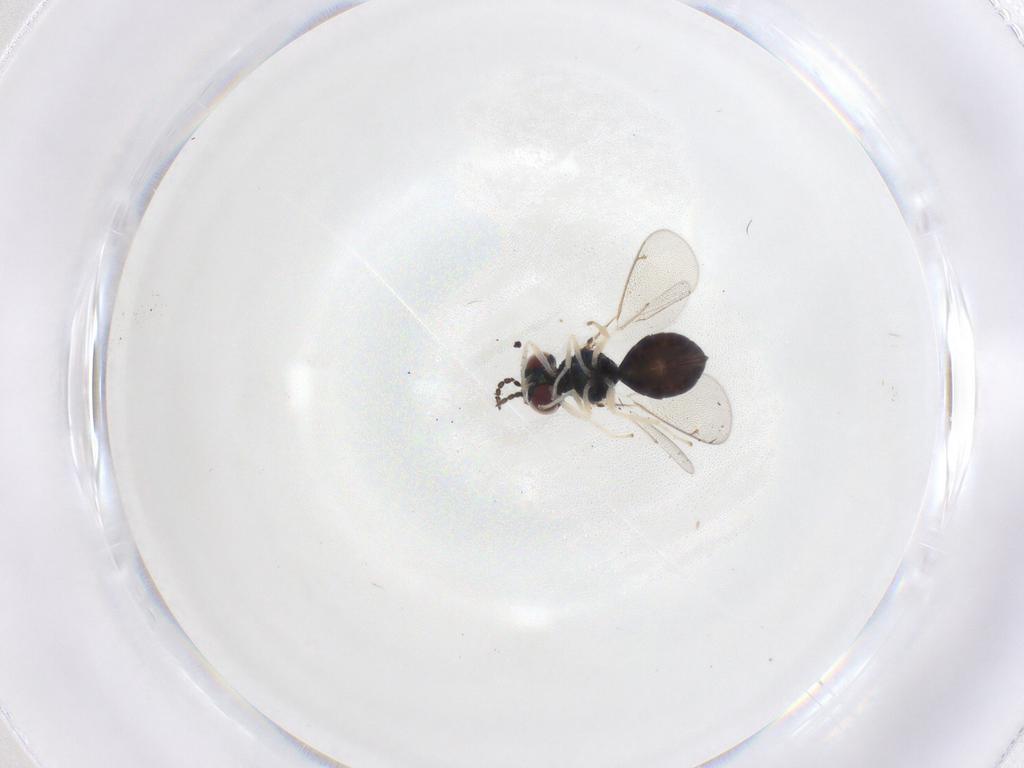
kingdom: Animalia
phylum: Arthropoda
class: Insecta
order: Hymenoptera
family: Eulophidae
